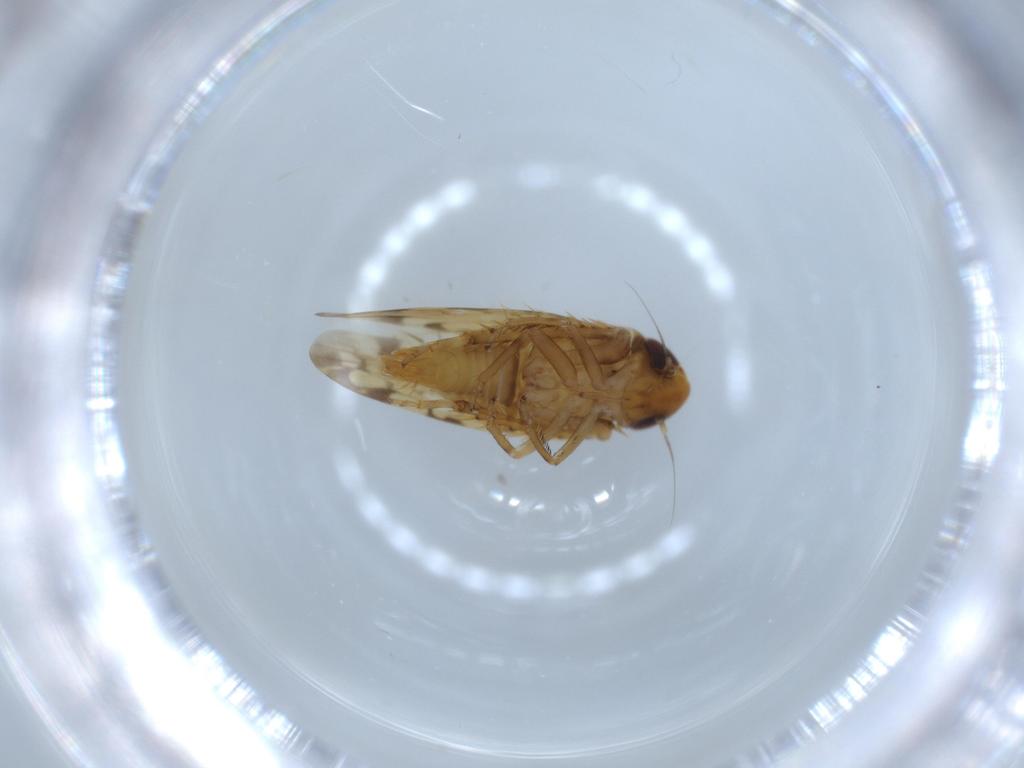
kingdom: Animalia
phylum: Arthropoda
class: Insecta
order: Hemiptera
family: Cicadellidae
